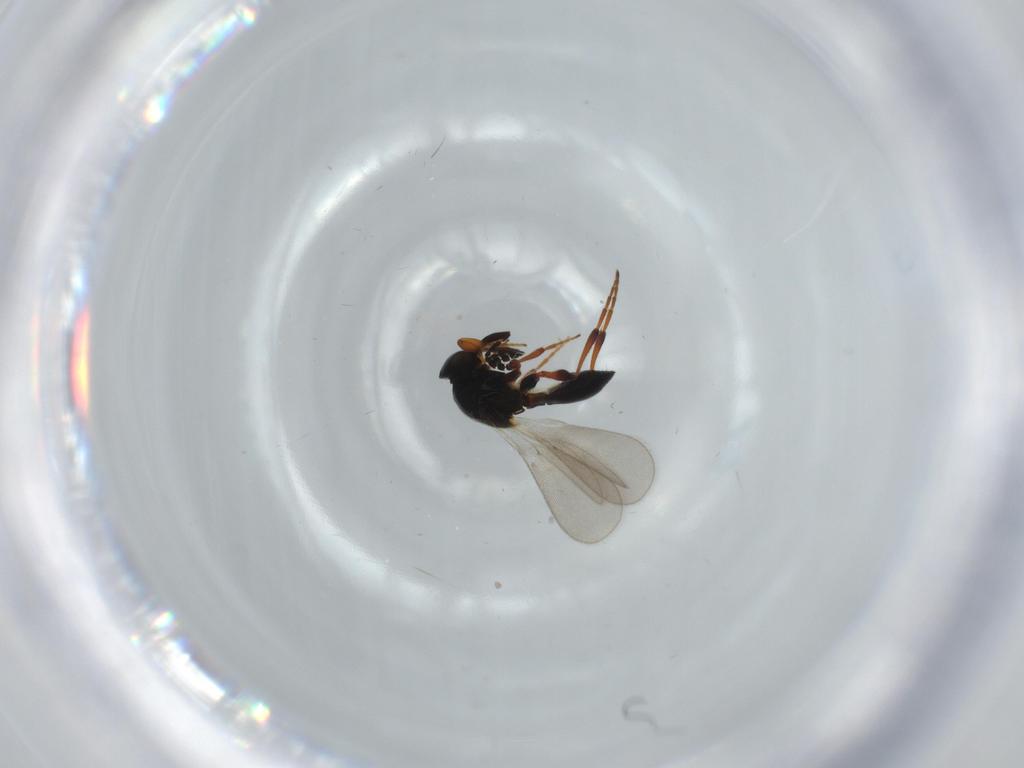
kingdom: Animalia
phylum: Arthropoda
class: Insecta
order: Hymenoptera
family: Platygastridae
